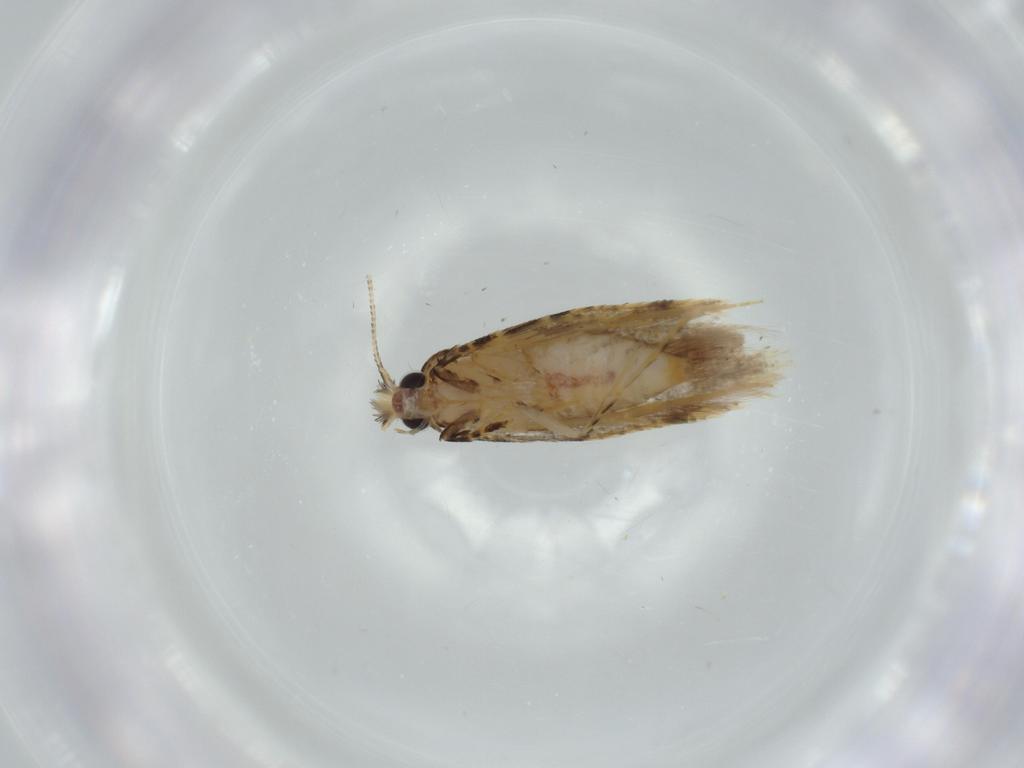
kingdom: Animalia
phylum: Arthropoda
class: Insecta
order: Lepidoptera
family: Tineidae
